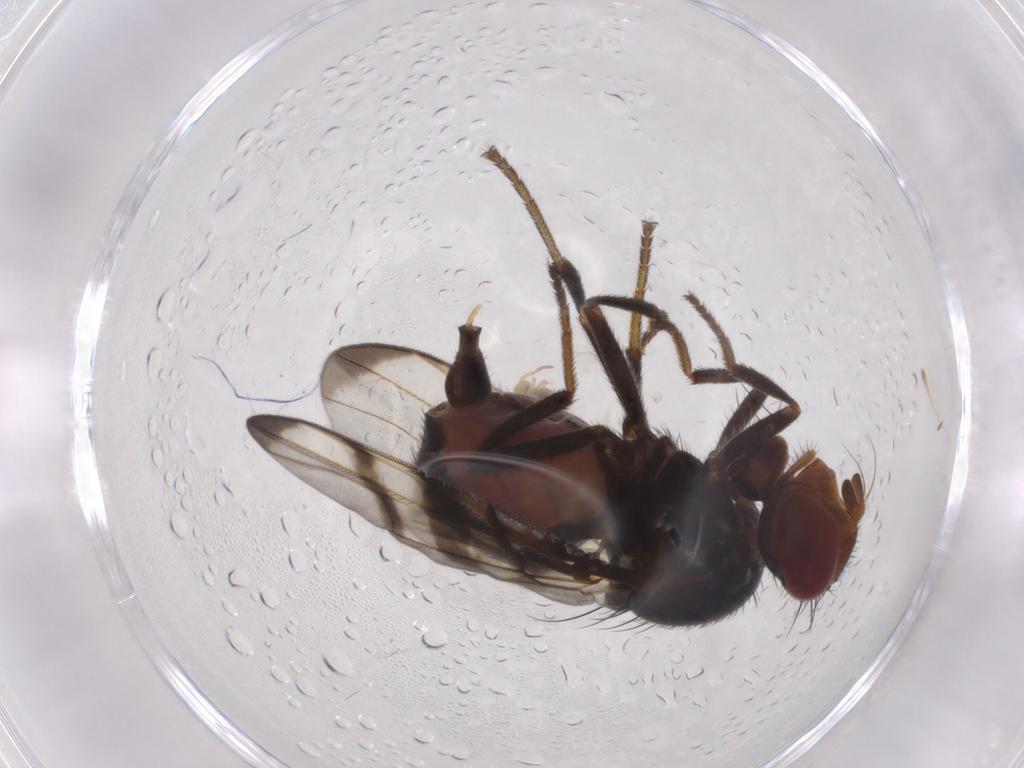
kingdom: Animalia
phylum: Arthropoda
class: Insecta
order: Diptera
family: Platystomatidae
